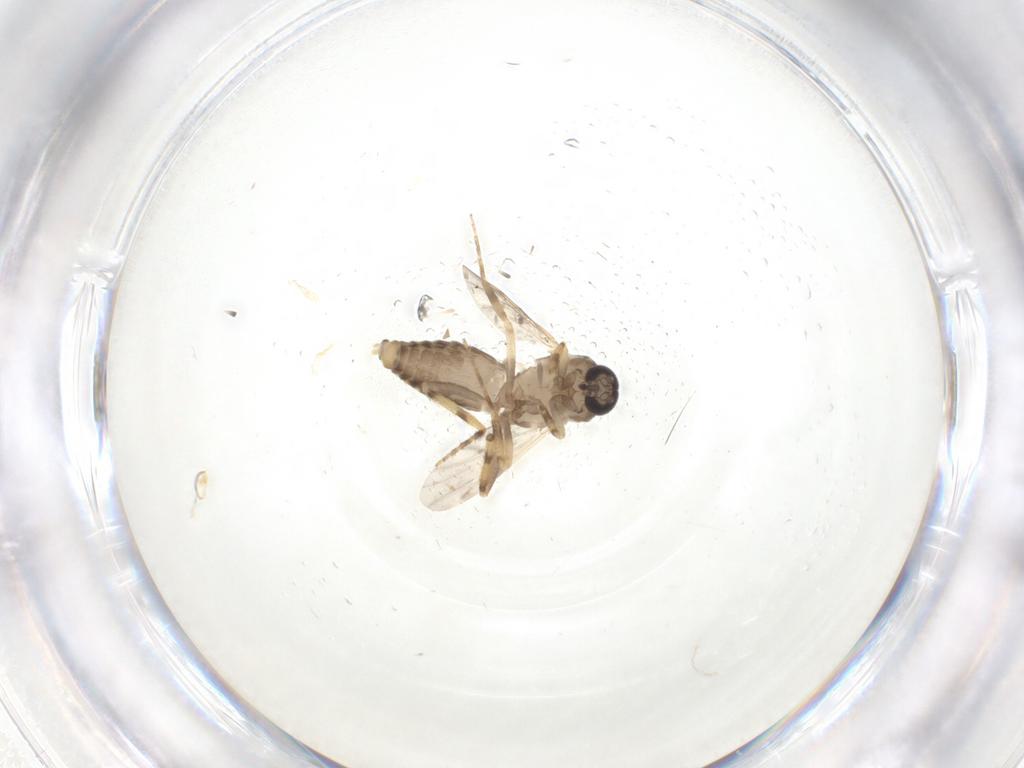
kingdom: Animalia
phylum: Arthropoda
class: Insecta
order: Diptera
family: Ceratopogonidae
